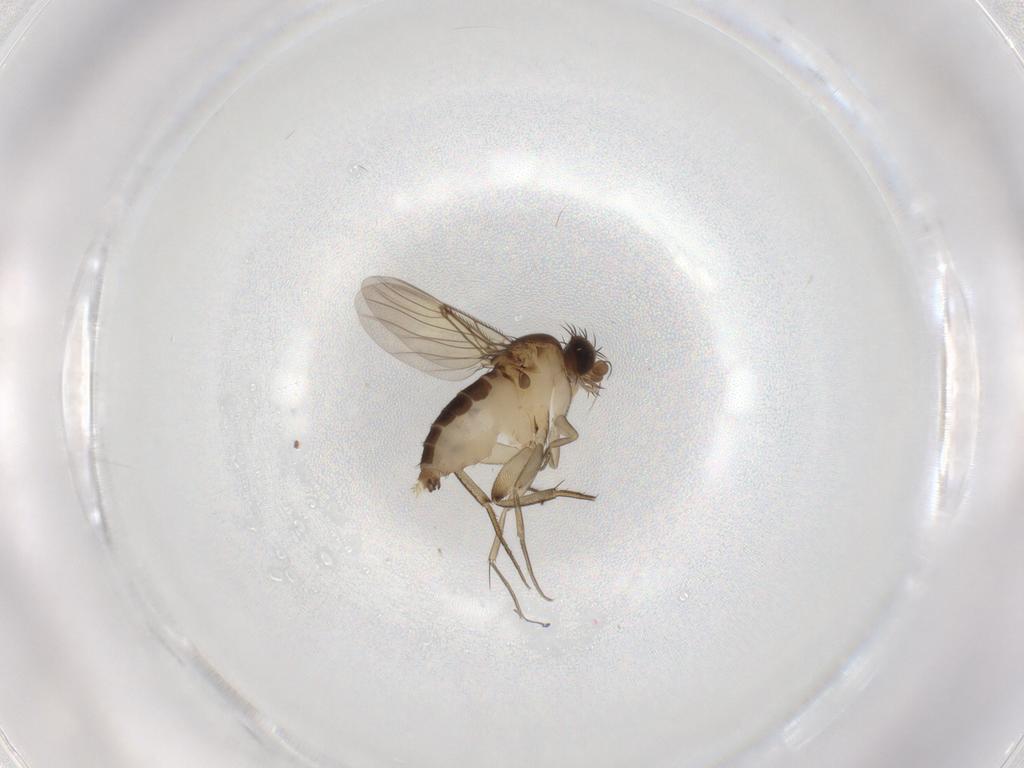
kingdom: Animalia
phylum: Arthropoda
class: Insecta
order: Diptera
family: Phoridae
